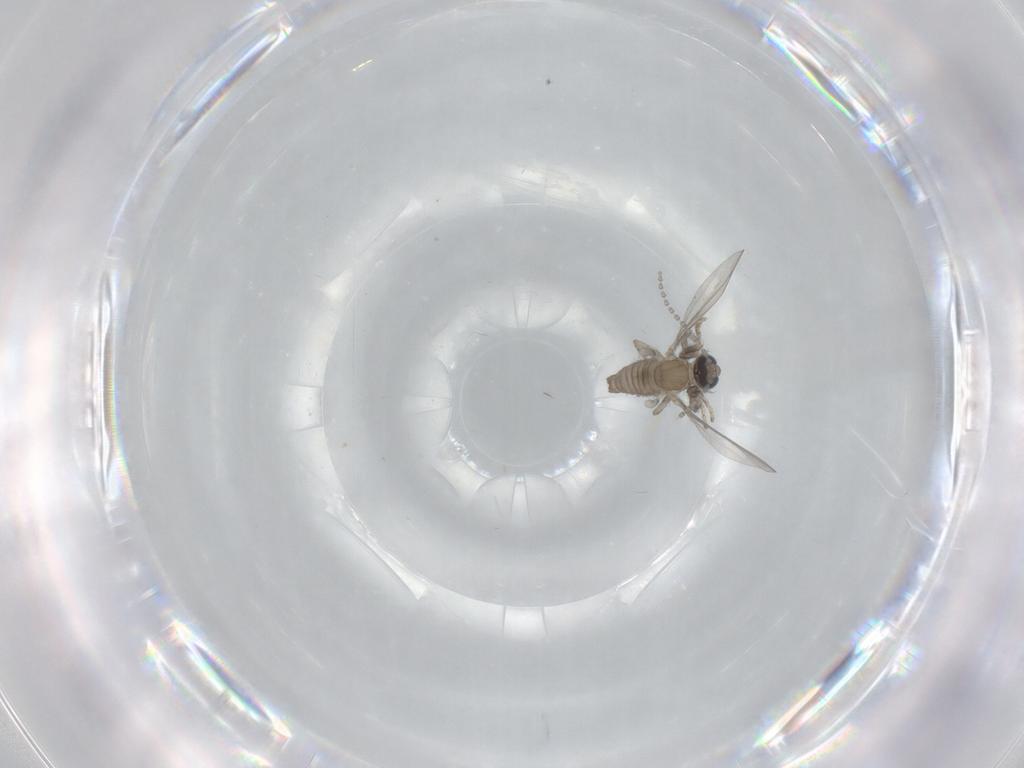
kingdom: Animalia
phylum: Arthropoda
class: Insecta
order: Diptera
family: Cecidomyiidae
